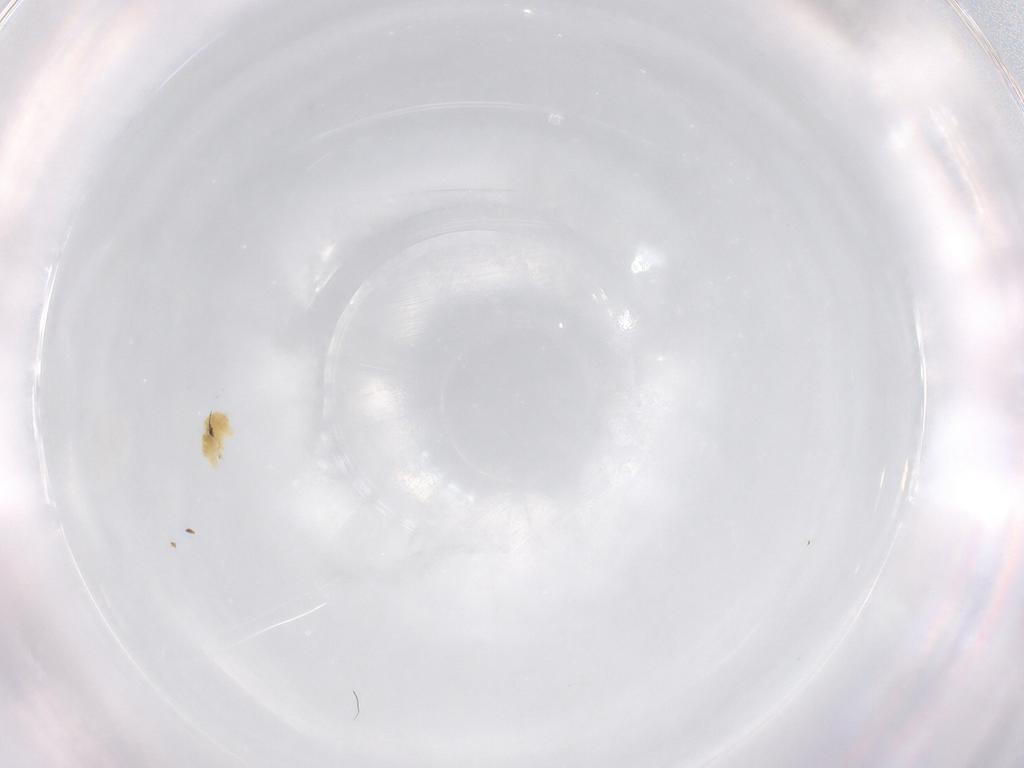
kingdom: Animalia
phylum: Arthropoda
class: Arachnida
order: Trombidiformes
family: Eupodidae
